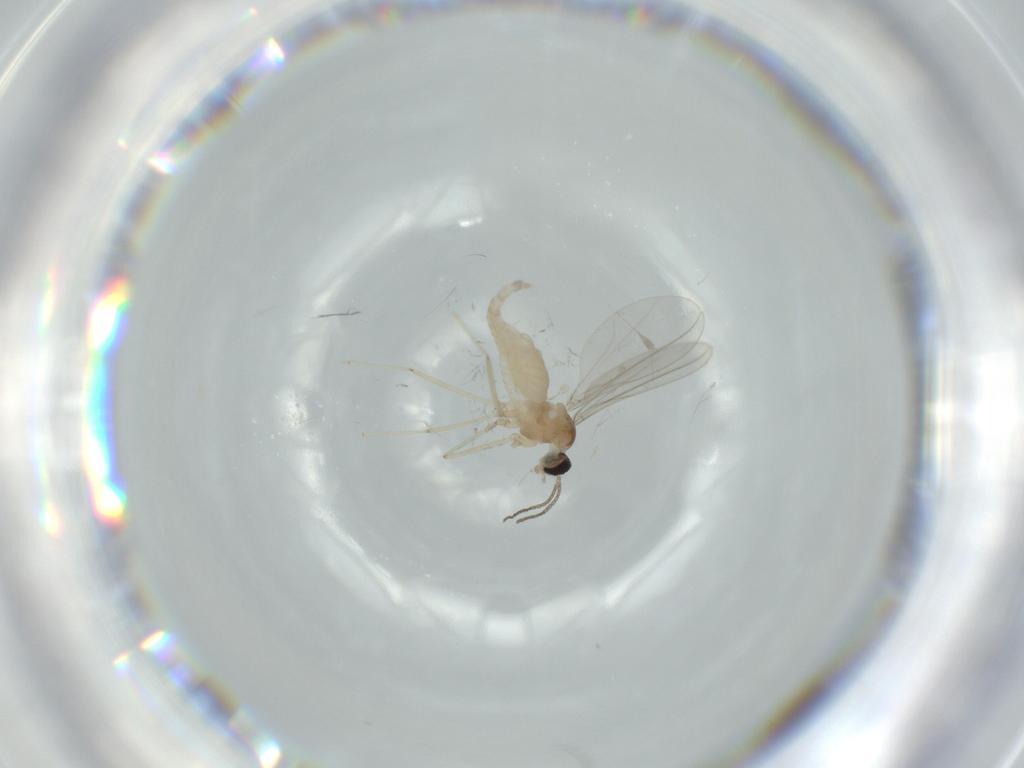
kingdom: Animalia
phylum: Arthropoda
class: Insecta
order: Diptera
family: Cecidomyiidae
